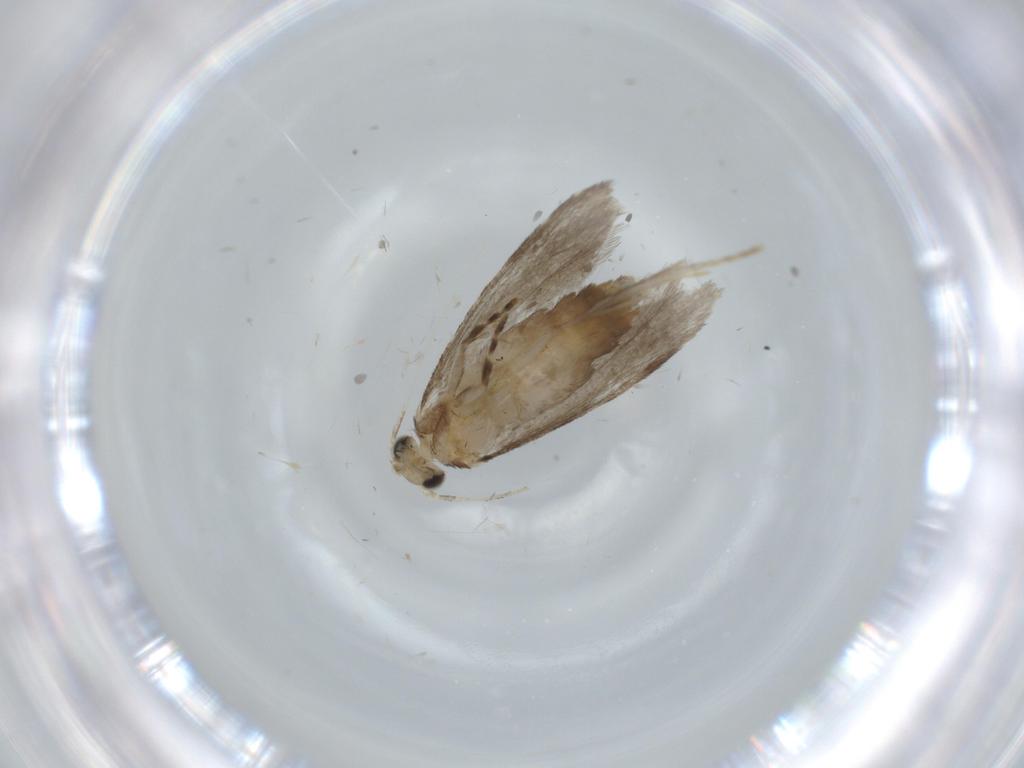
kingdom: Animalia
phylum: Arthropoda
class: Insecta
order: Lepidoptera
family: Tineidae
